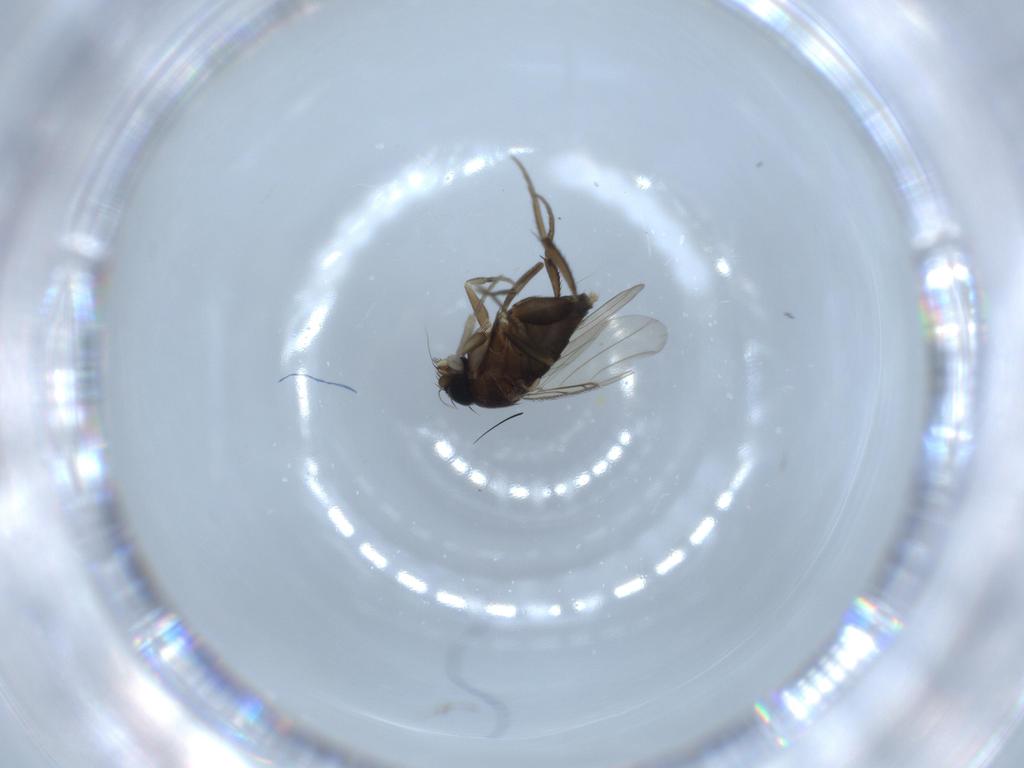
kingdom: Animalia
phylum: Arthropoda
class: Insecta
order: Diptera
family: Phoridae
